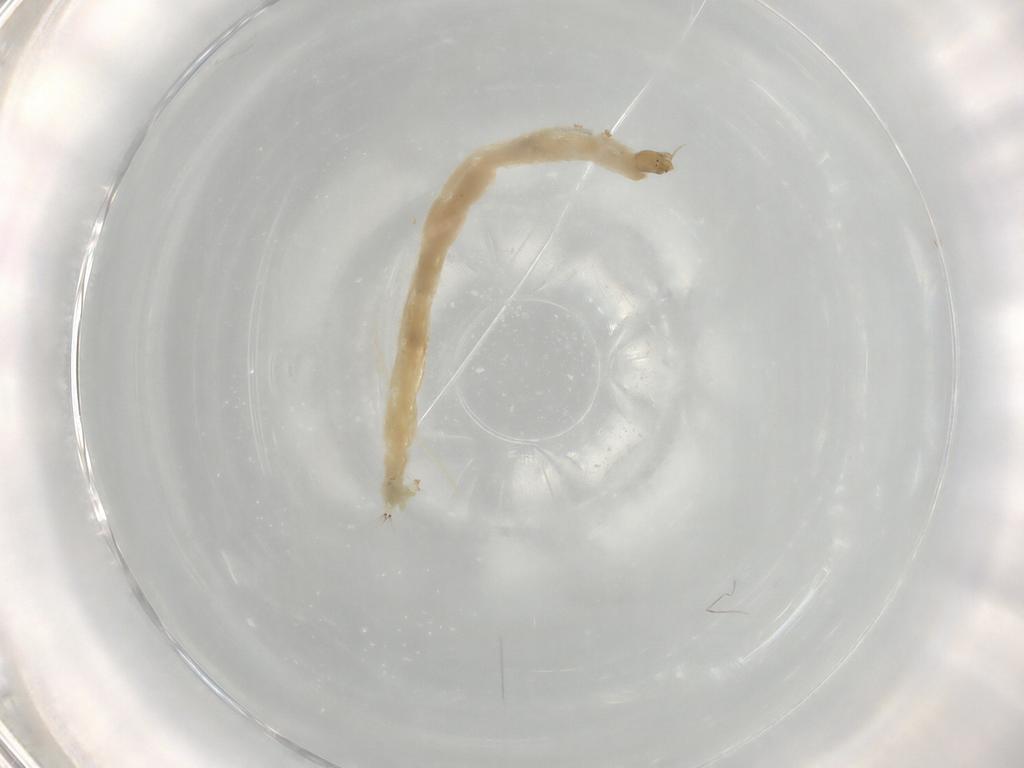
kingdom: Animalia
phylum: Arthropoda
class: Insecta
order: Diptera
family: Chironomidae
